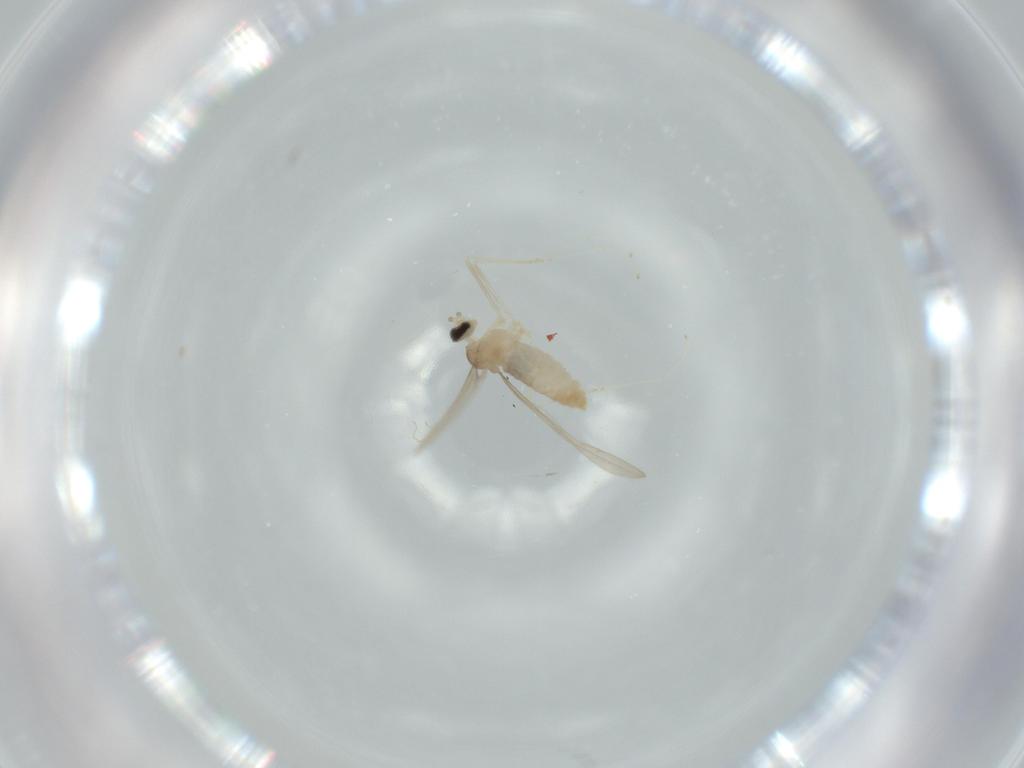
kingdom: Animalia
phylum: Arthropoda
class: Insecta
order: Diptera
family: Cecidomyiidae
